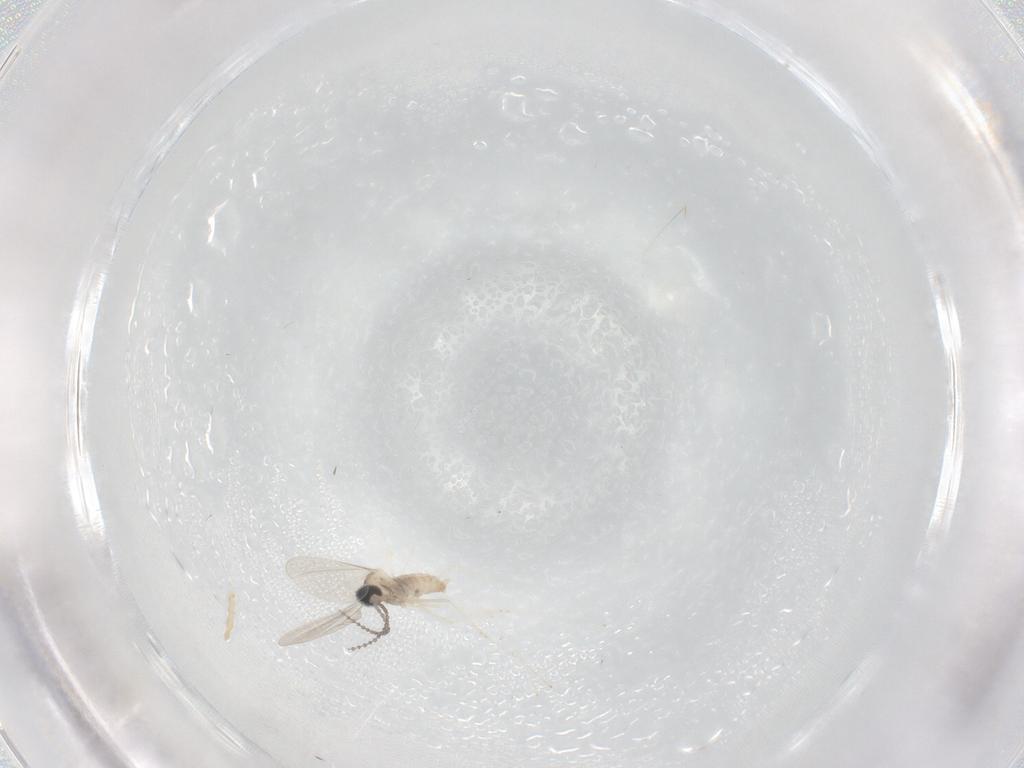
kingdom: Animalia
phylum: Arthropoda
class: Insecta
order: Diptera
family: Cecidomyiidae
